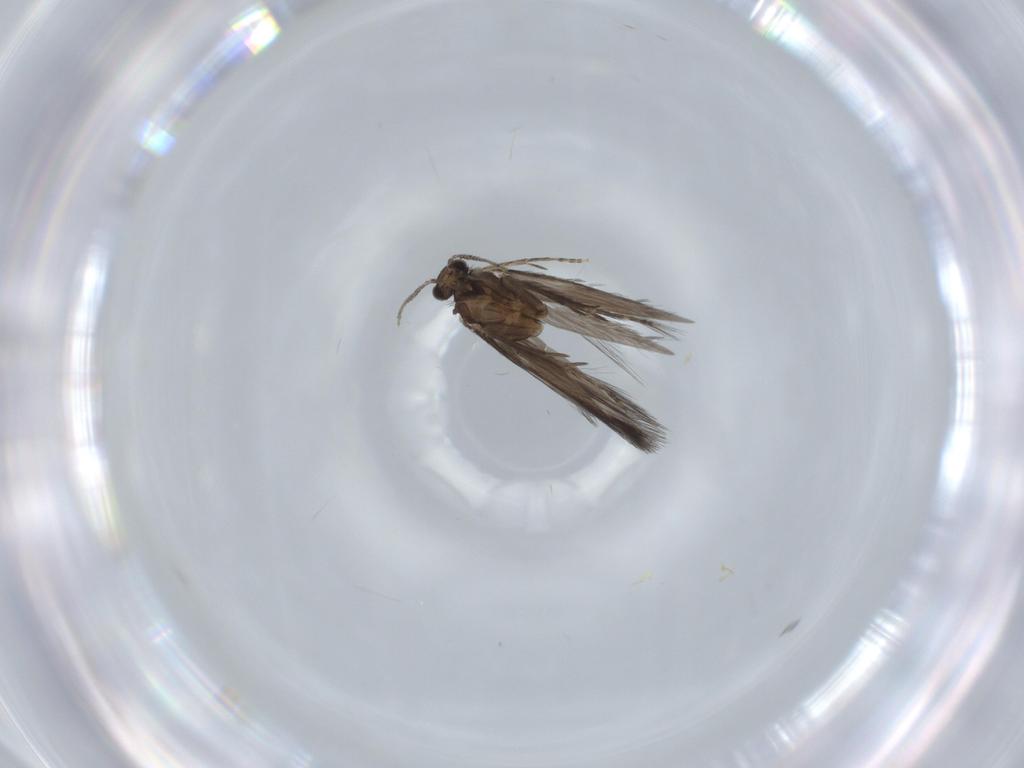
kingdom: Animalia
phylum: Arthropoda
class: Insecta
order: Trichoptera
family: Hydroptilidae
